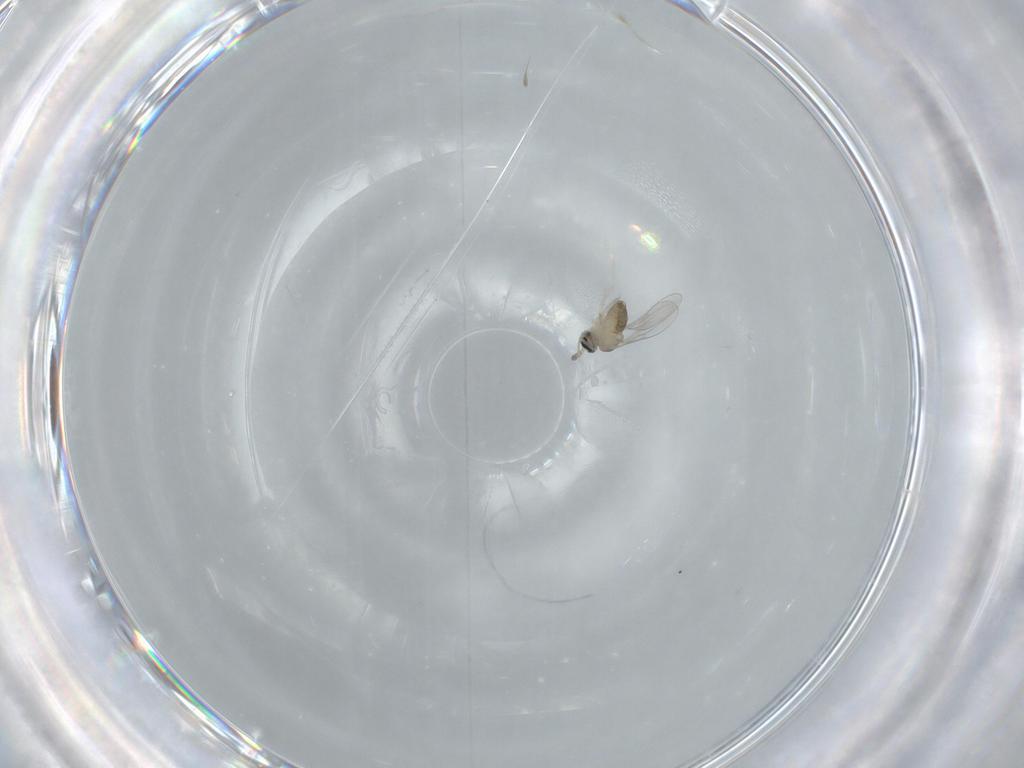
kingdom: Animalia
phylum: Arthropoda
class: Insecta
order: Diptera
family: Cecidomyiidae
